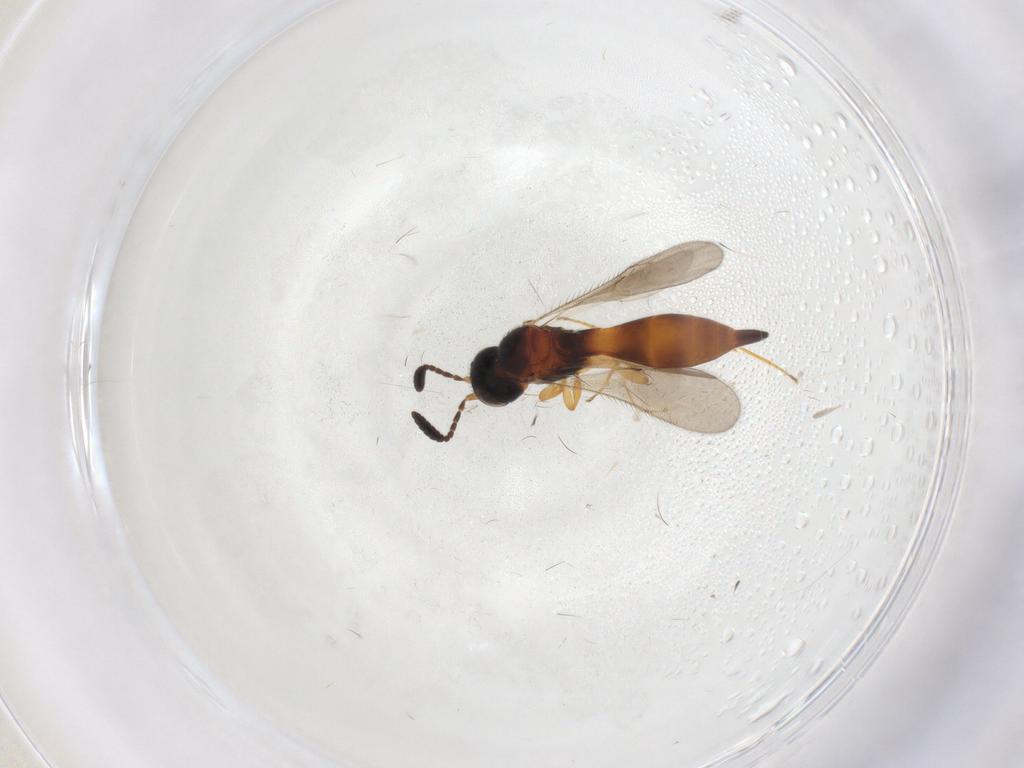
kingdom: Animalia
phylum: Arthropoda
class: Insecta
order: Hymenoptera
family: Scelionidae
